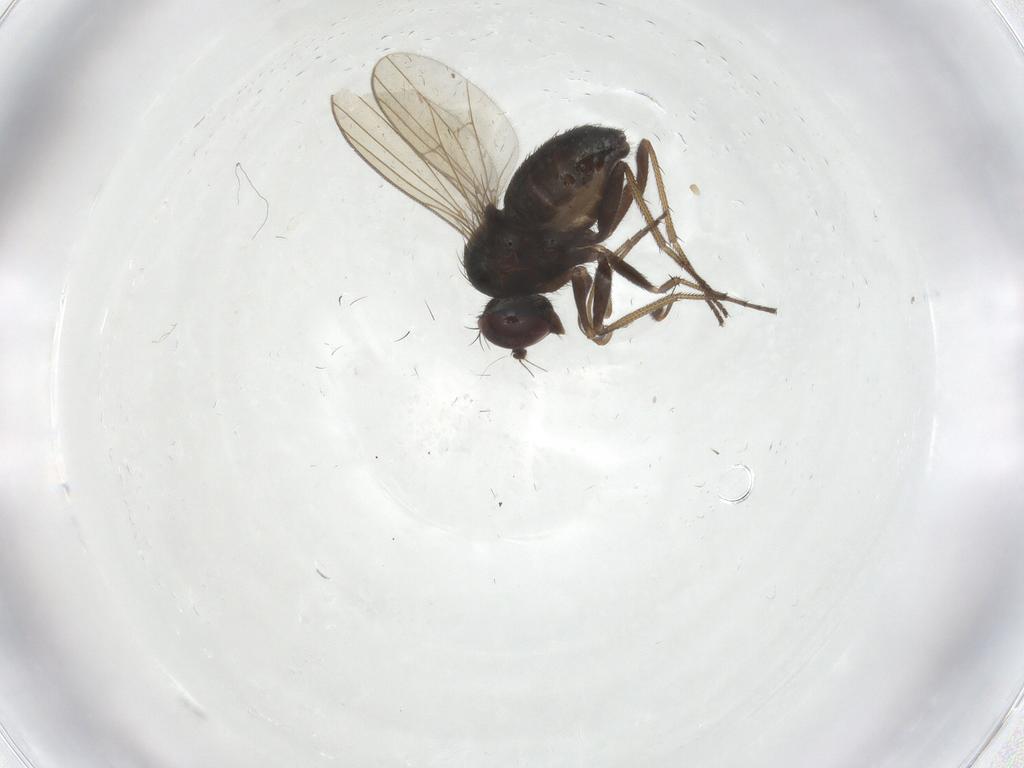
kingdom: Animalia
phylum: Arthropoda
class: Insecta
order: Diptera
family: Dolichopodidae
